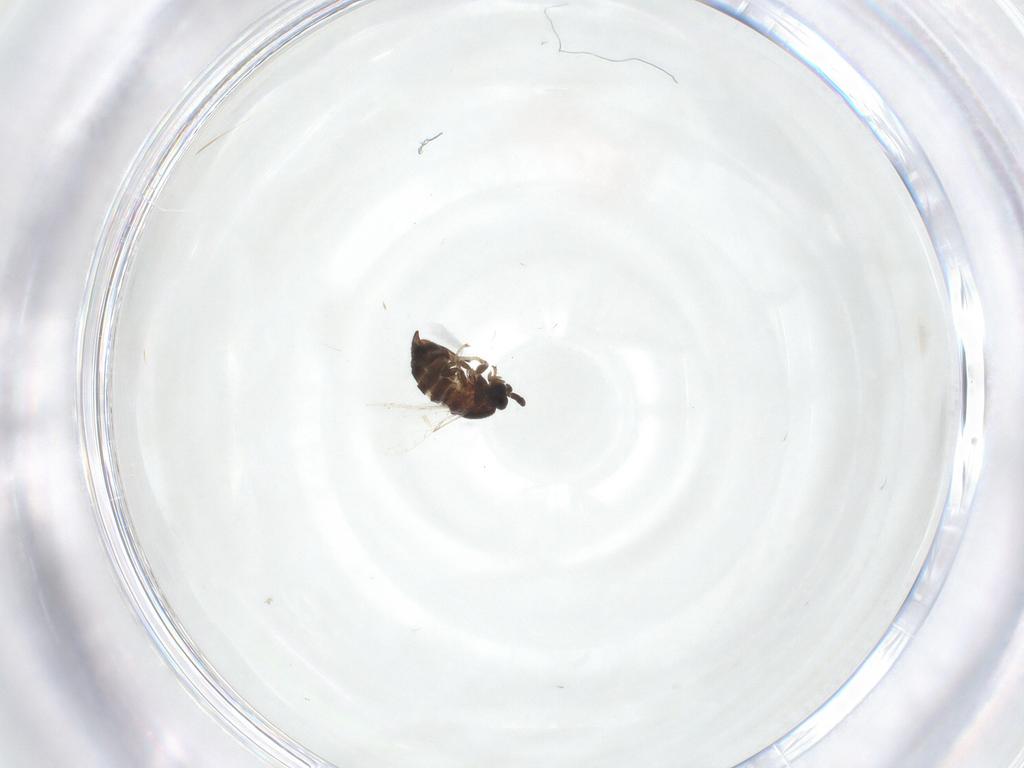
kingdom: Animalia
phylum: Arthropoda
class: Insecta
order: Diptera
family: Scatopsidae
